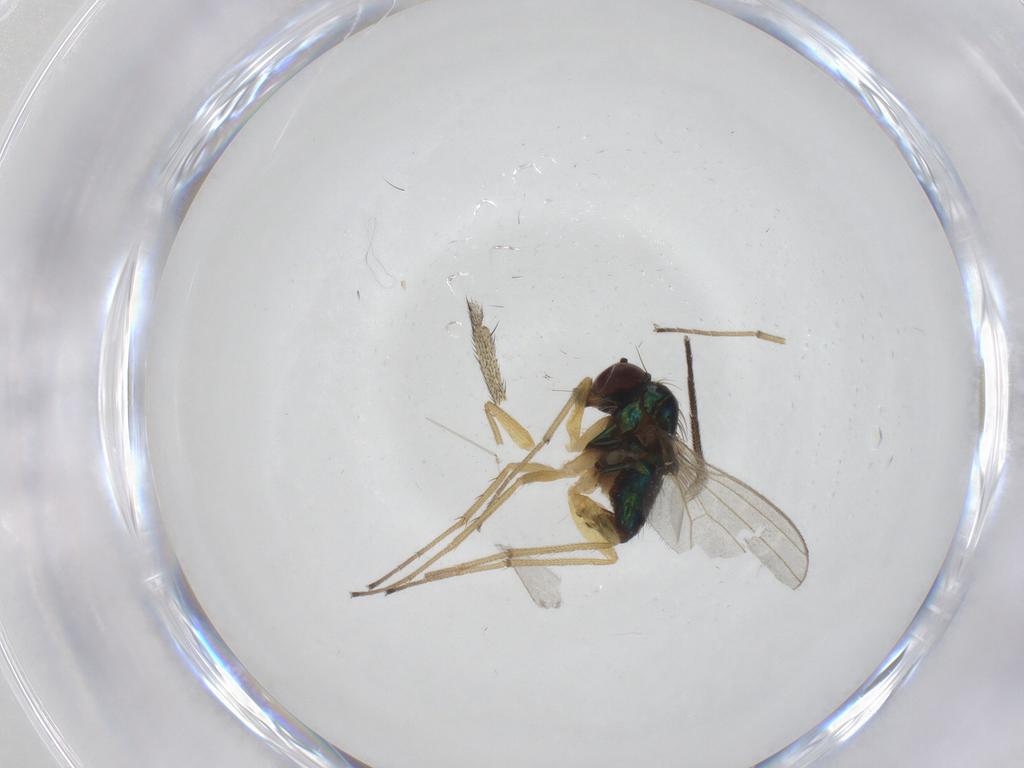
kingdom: Animalia
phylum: Arthropoda
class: Insecta
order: Diptera
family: Dolichopodidae
